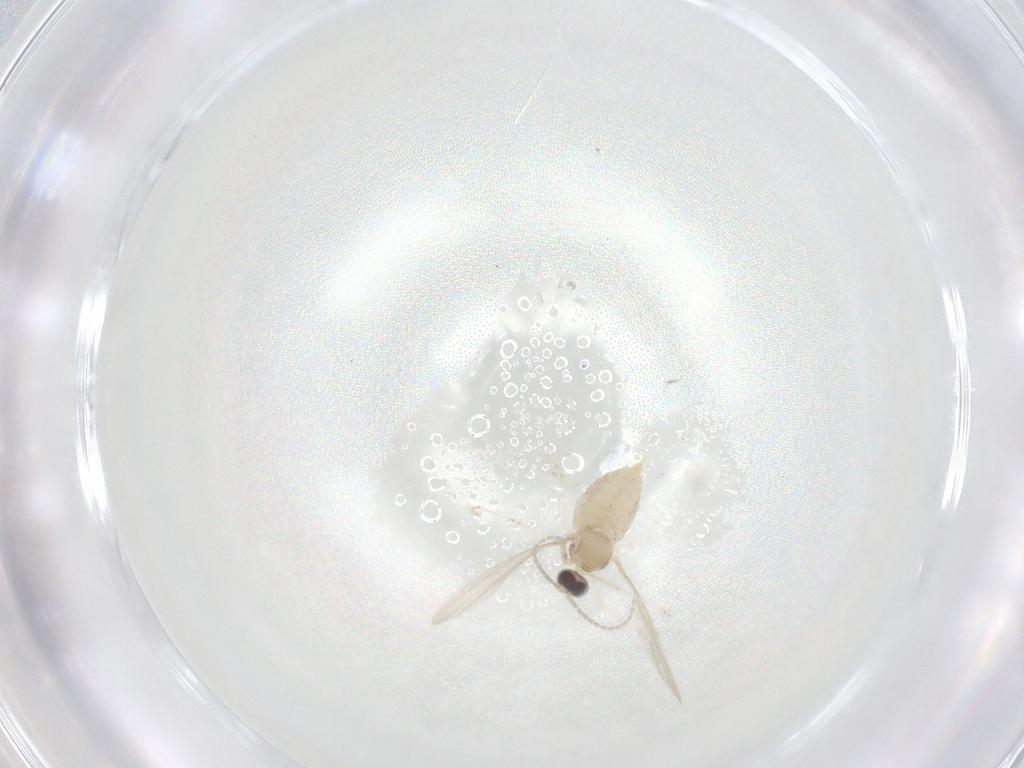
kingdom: Animalia
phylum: Arthropoda
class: Insecta
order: Diptera
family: Cecidomyiidae
